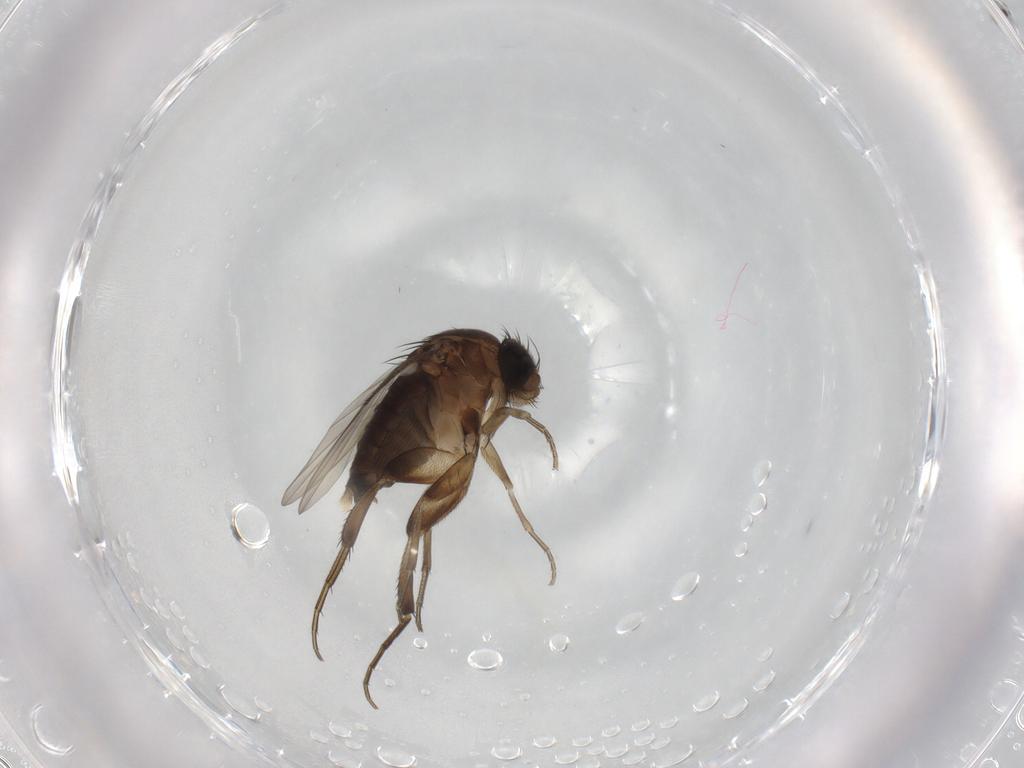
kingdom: Animalia
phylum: Arthropoda
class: Insecta
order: Diptera
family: Phoridae
